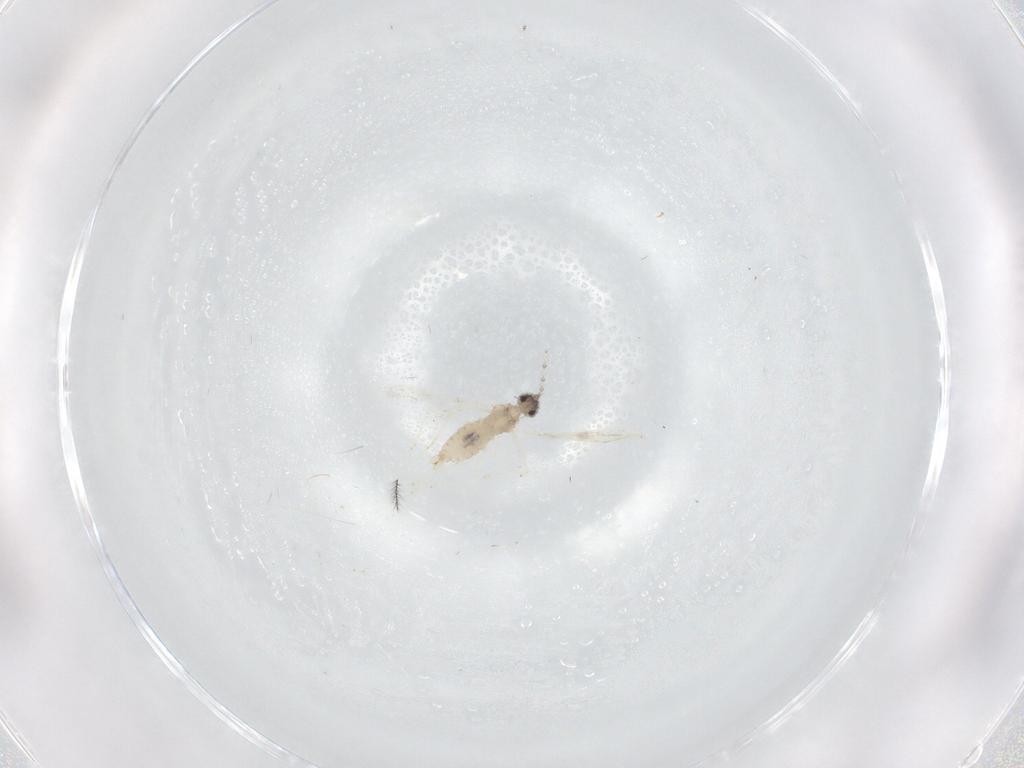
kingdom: Animalia
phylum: Arthropoda
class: Insecta
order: Diptera
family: Cecidomyiidae
